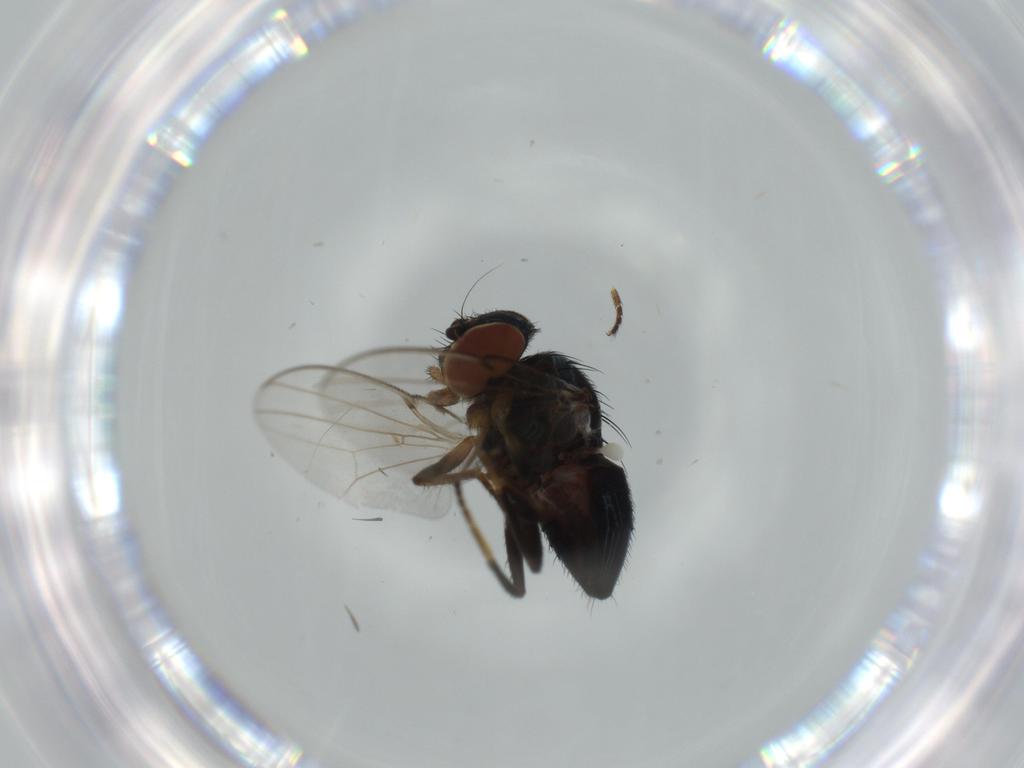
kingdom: Animalia
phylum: Arthropoda
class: Insecta
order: Diptera
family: Milichiidae
